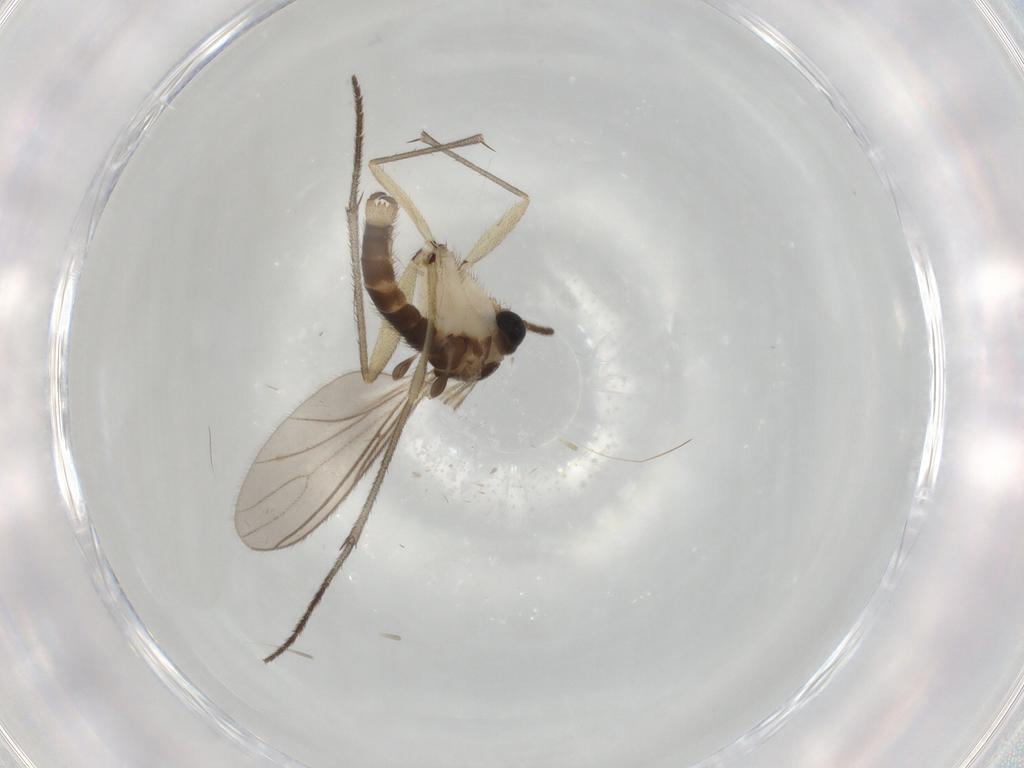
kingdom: Animalia
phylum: Arthropoda
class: Insecta
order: Diptera
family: Sciaridae
